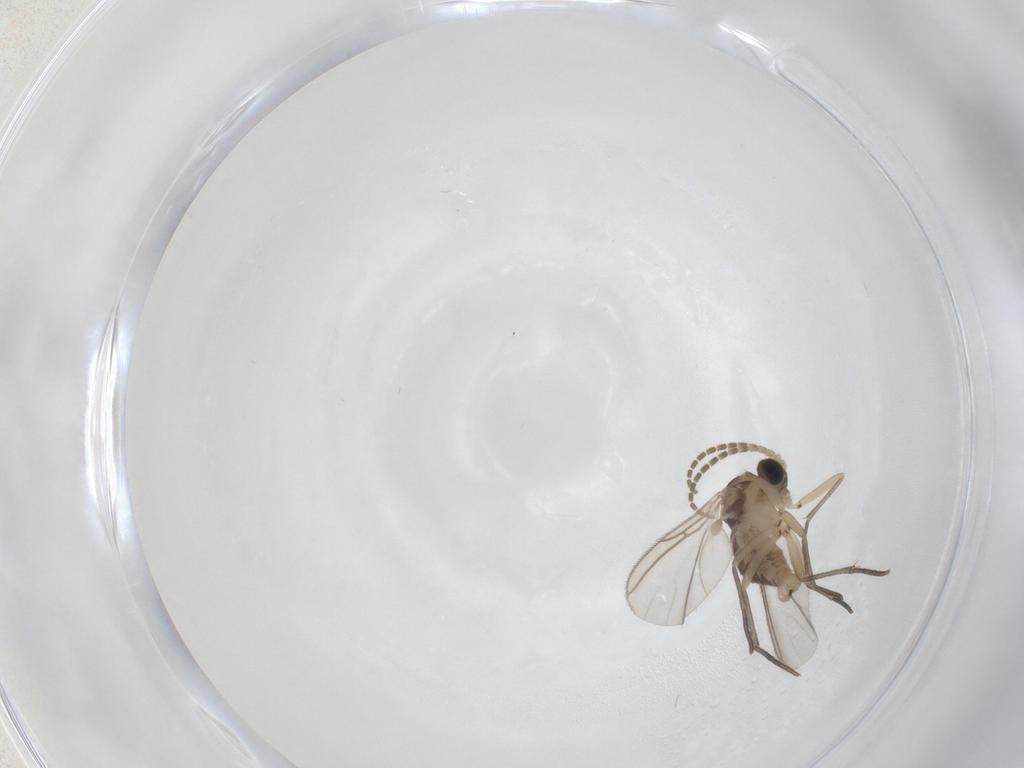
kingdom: Animalia
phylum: Arthropoda
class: Insecta
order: Diptera
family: Sciaridae
